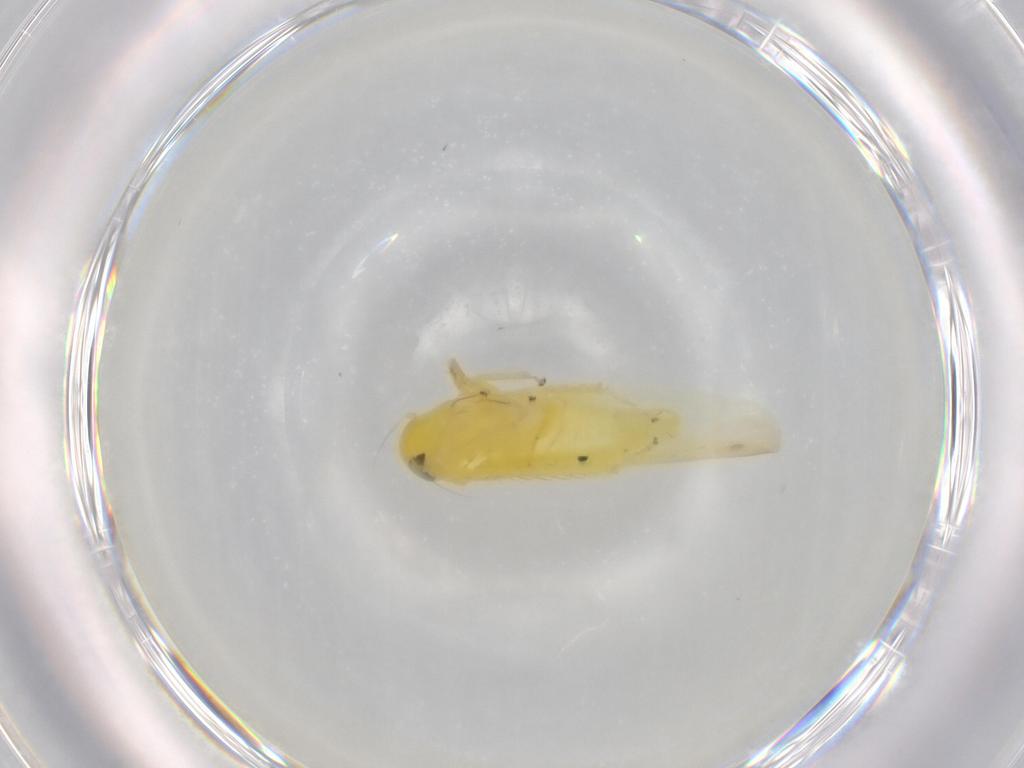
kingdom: Animalia
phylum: Arthropoda
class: Insecta
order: Hemiptera
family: Cicadellidae
